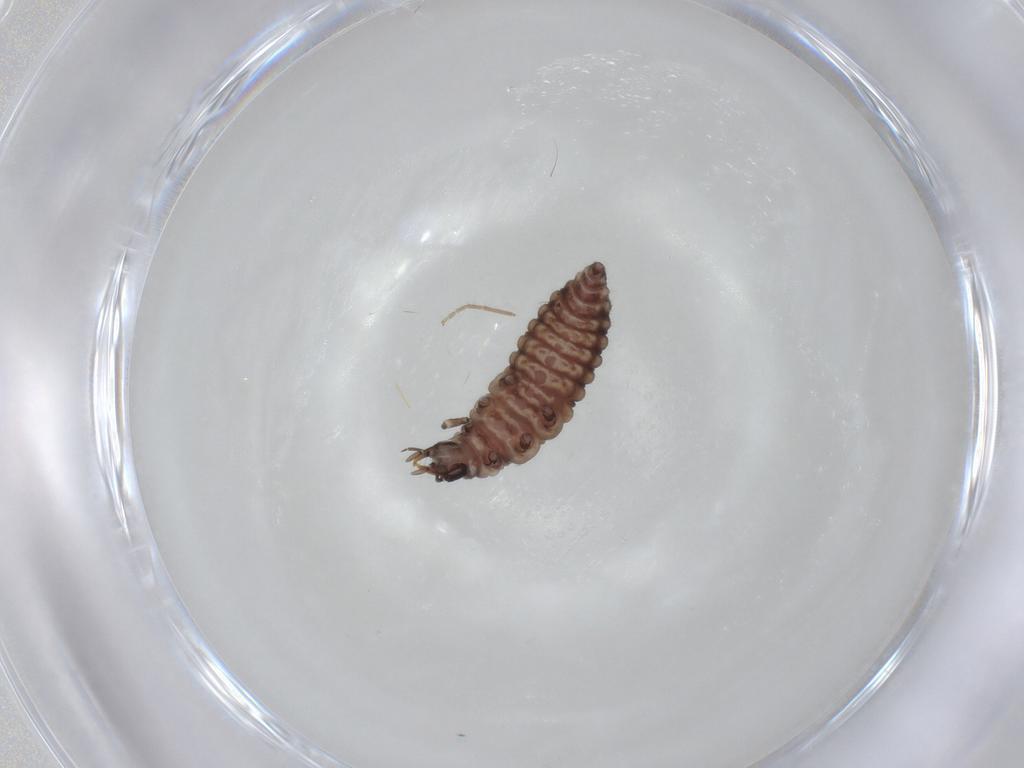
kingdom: Animalia
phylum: Arthropoda
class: Insecta
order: Neuroptera
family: Hemerobiidae
